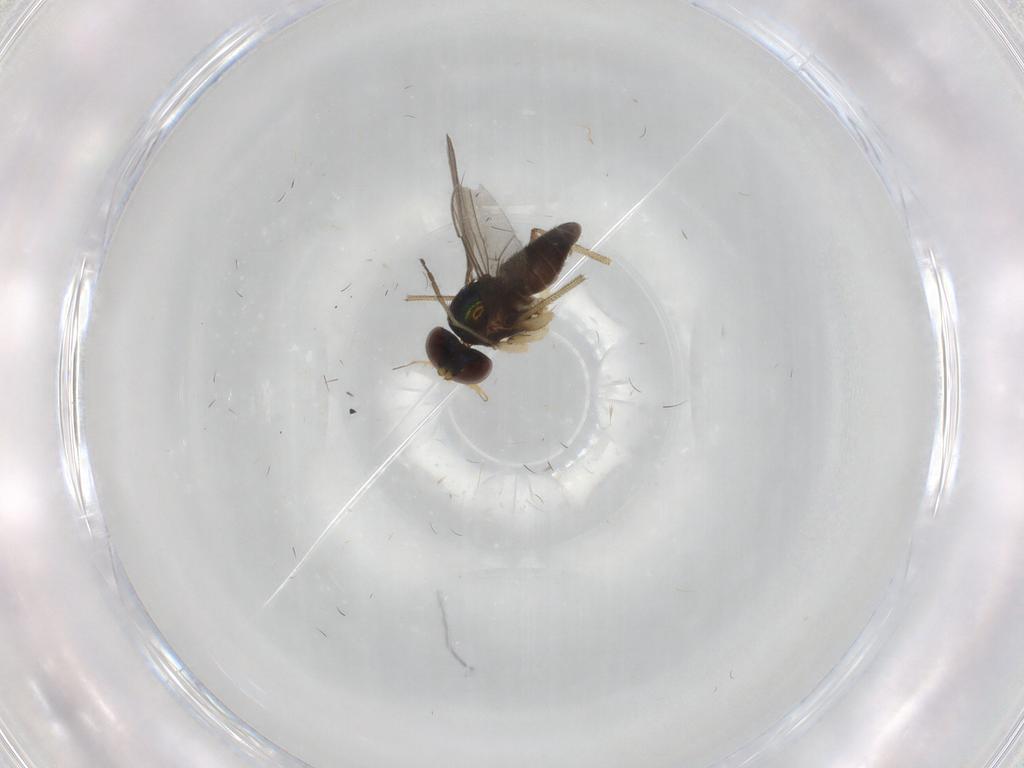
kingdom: Animalia
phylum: Arthropoda
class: Insecta
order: Diptera
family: Dolichopodidae
